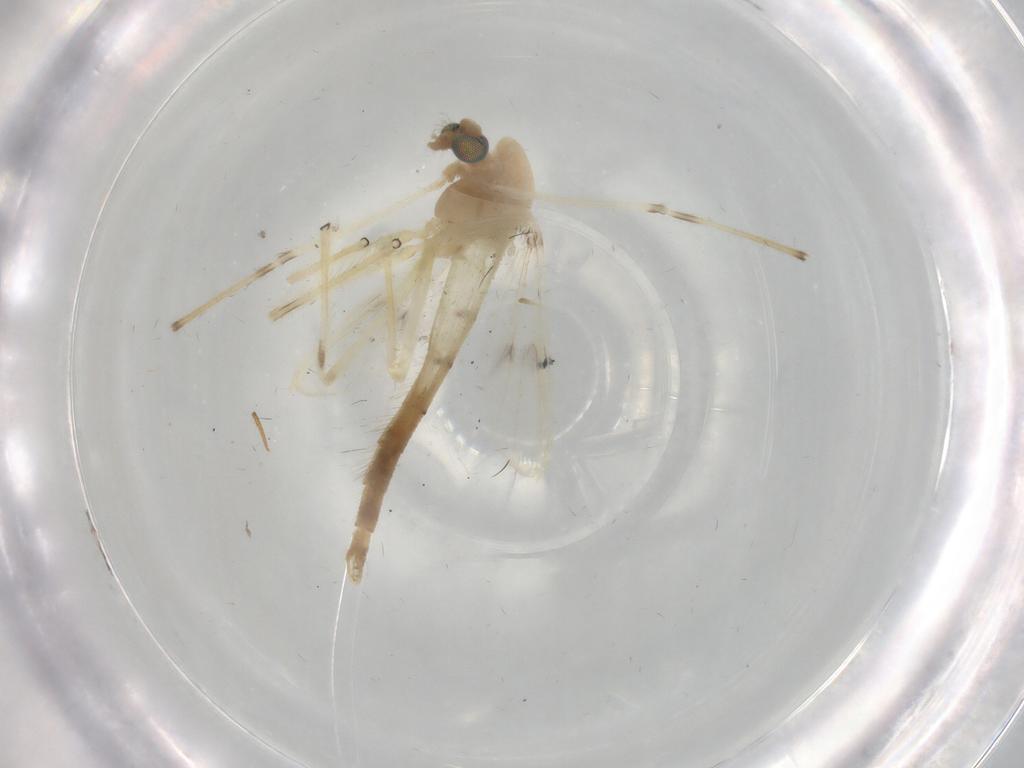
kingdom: Animalia
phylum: Arthropoda
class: Insecta
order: Diptera
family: Chironomidae
